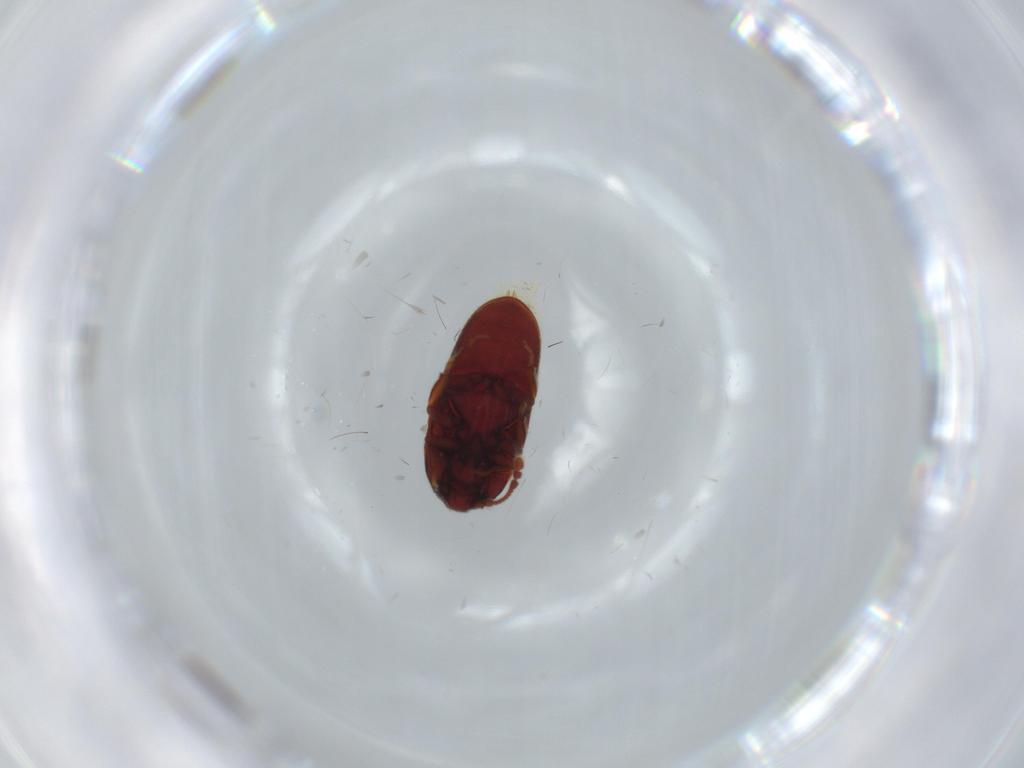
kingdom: Animalia
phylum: Arthropoda
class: Insecta
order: Coleoptera
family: Throscidae
